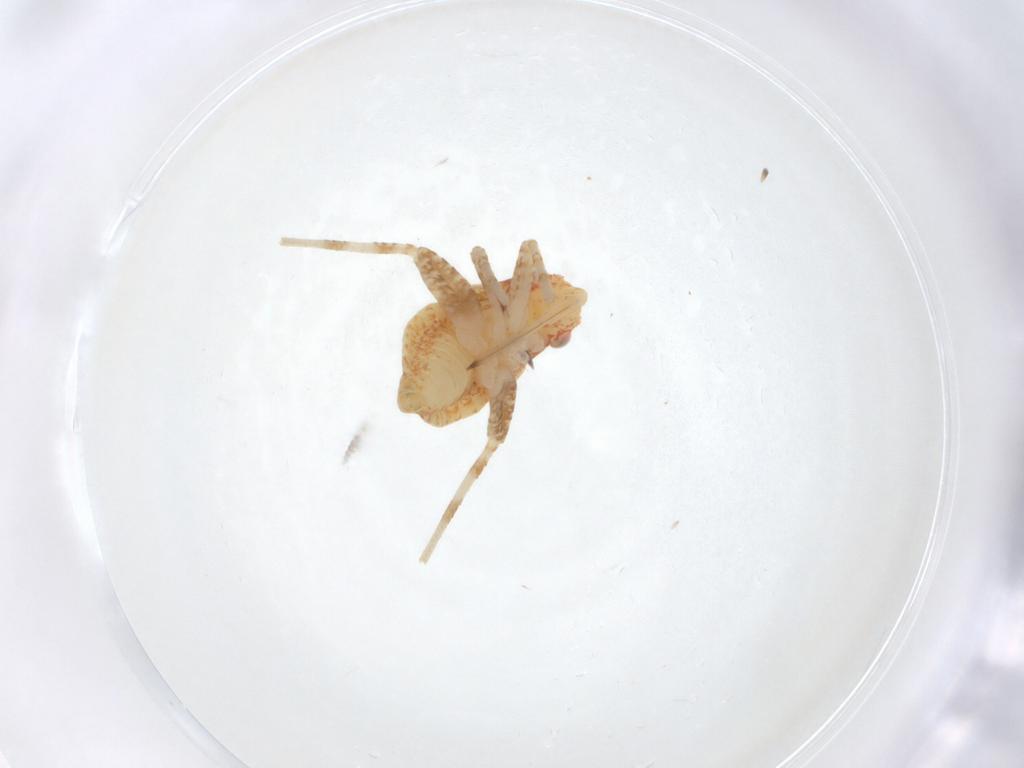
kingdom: Animalia
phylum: Arthropoda
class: Insecta
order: Hemiptera
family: Miridae
